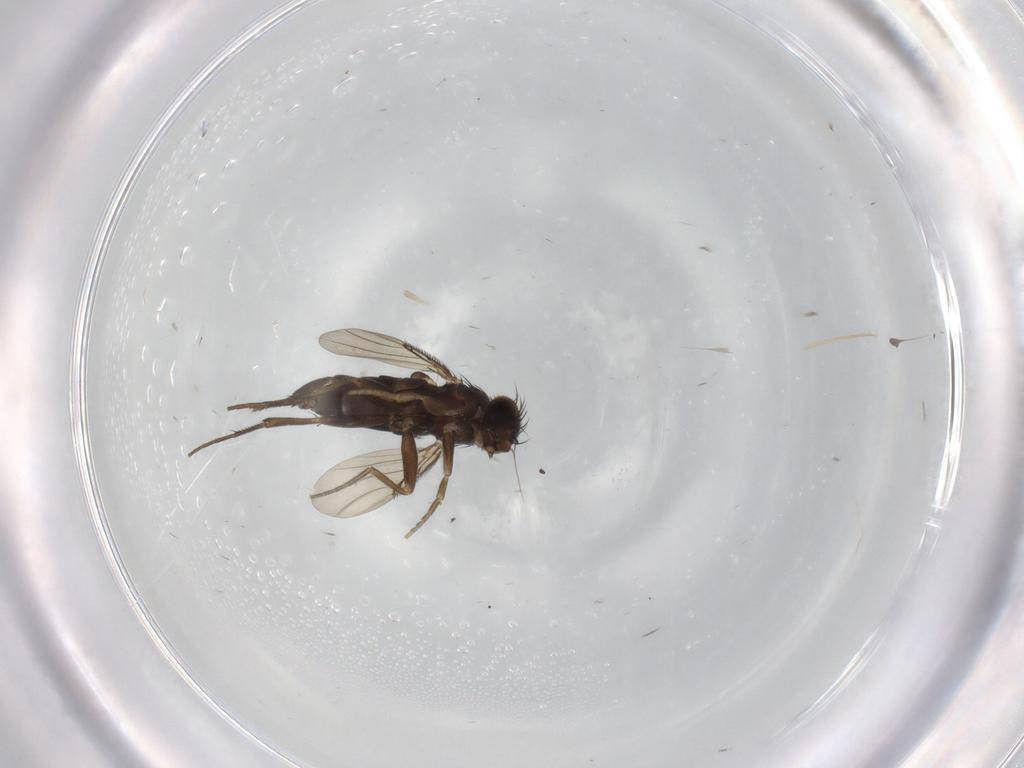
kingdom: Animalia
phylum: Arthropoda
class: Insecta
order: Diptera
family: Phoridae
